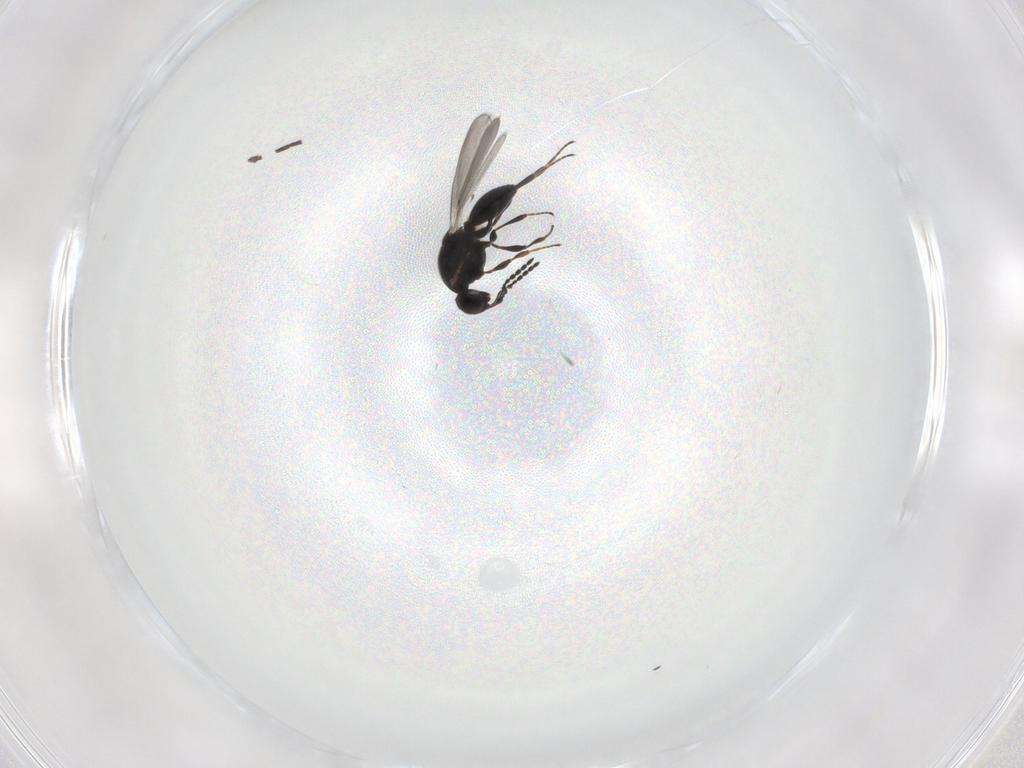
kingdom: Animalia
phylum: Arthropoda
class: Insecta
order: Hymenoptera
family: Platygastridae
